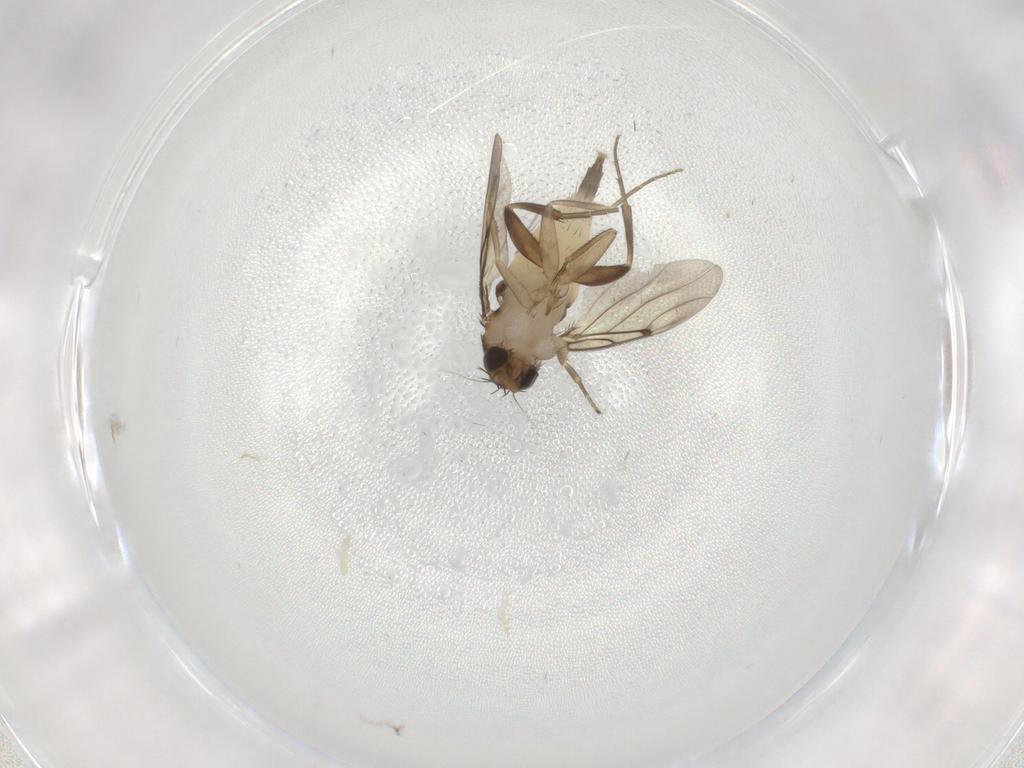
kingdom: Animalia
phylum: Arthropoda
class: Insecta
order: Diptera
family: Phoridae
